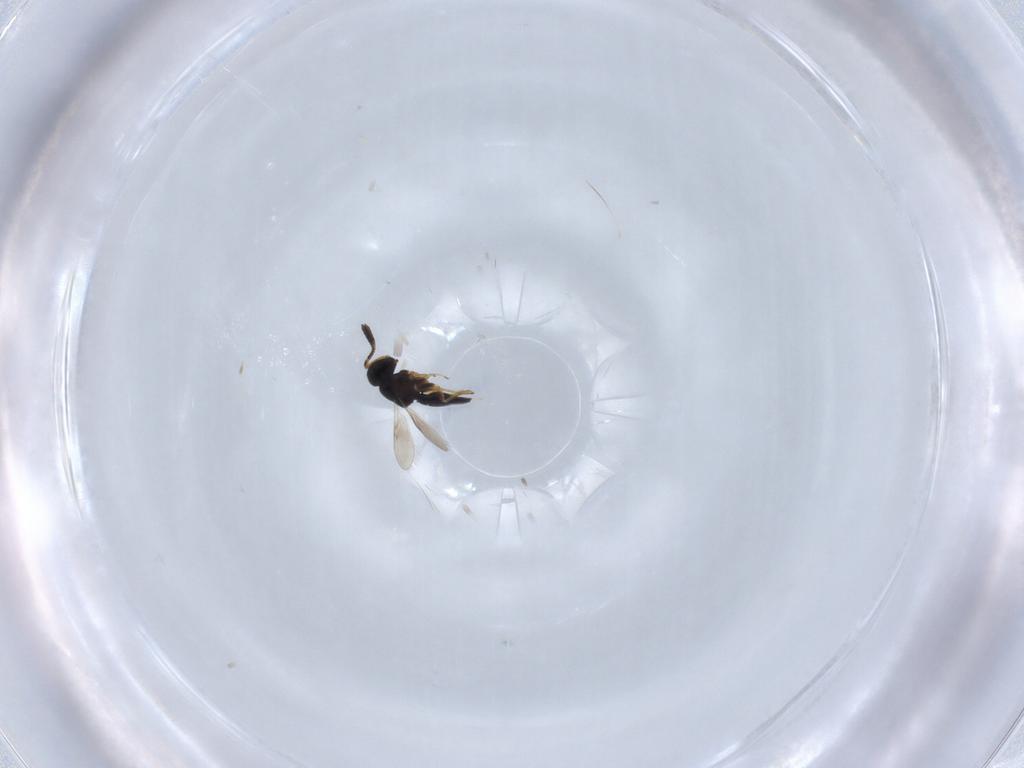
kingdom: Animalia
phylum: Arthropoda
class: Insecta
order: Hymenoptera
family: Scelionidae
